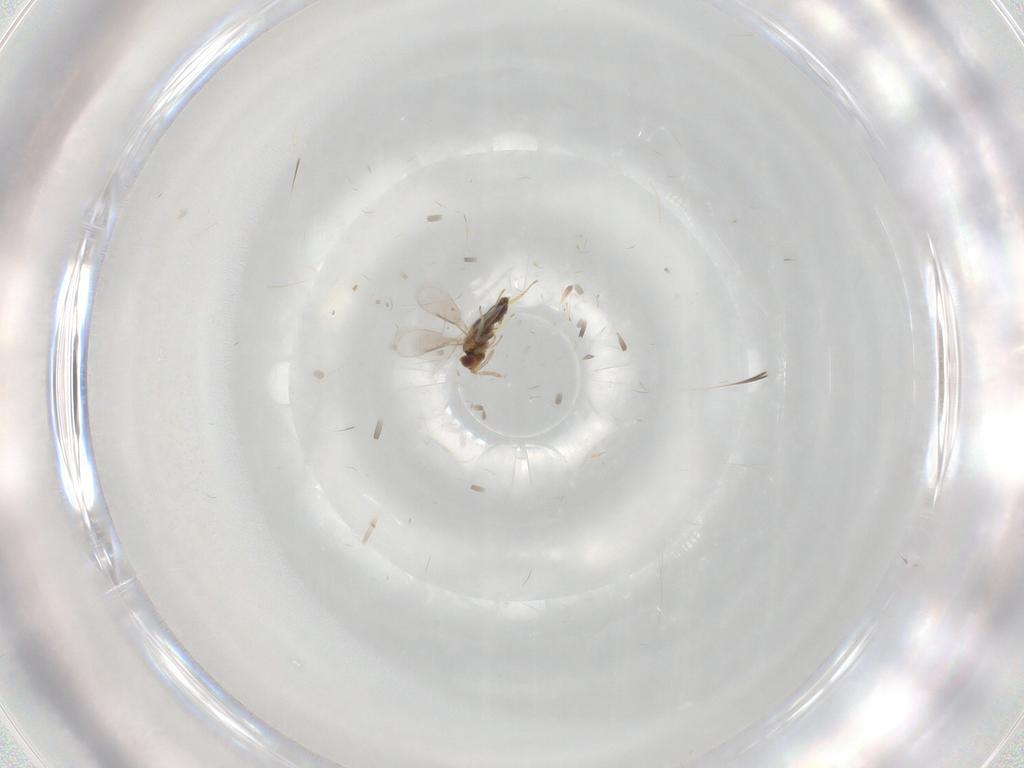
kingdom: Animalia
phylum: Arthropoda
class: Insecta
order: Hymenoptera
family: Aphelinidae
